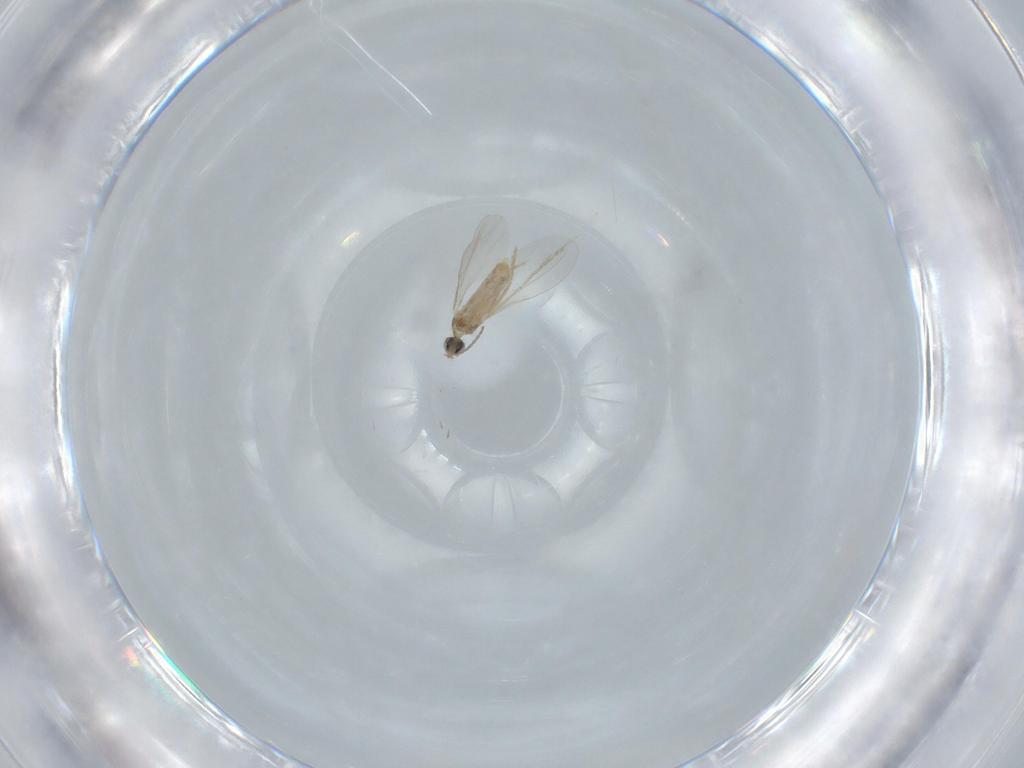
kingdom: Animalia
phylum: Arthropoda
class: Insecta
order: Diptera
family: Cecidomyiidae
